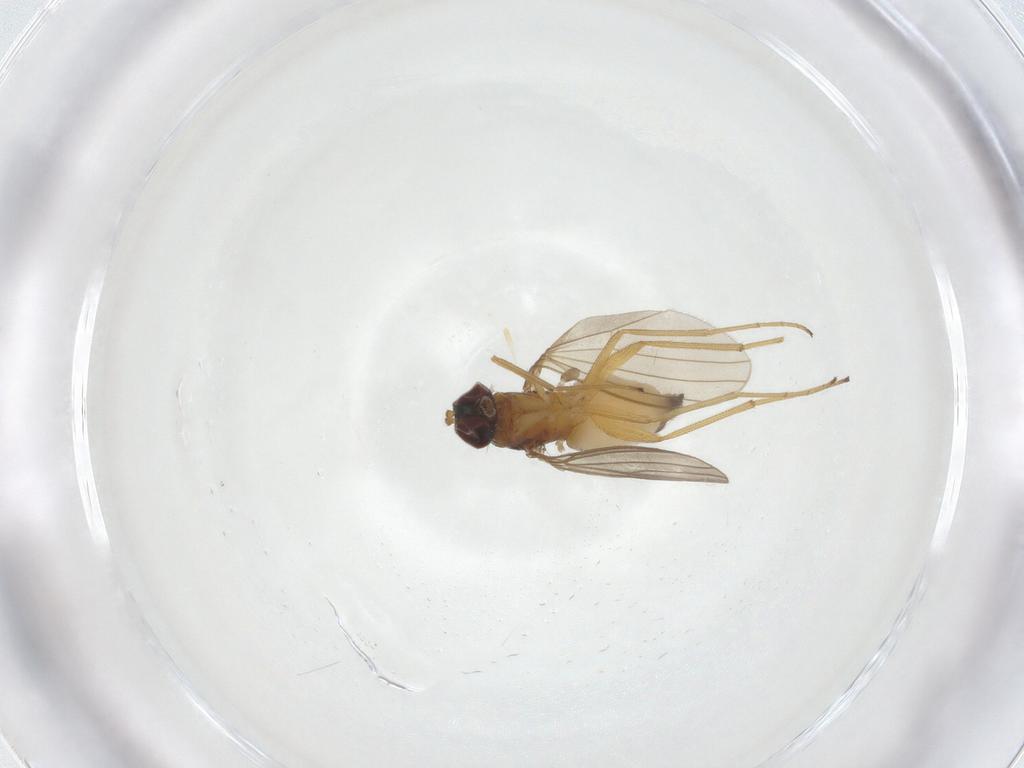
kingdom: Animalia
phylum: Arthropoda
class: Insecta
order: Diptera
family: Dolichopodidae
